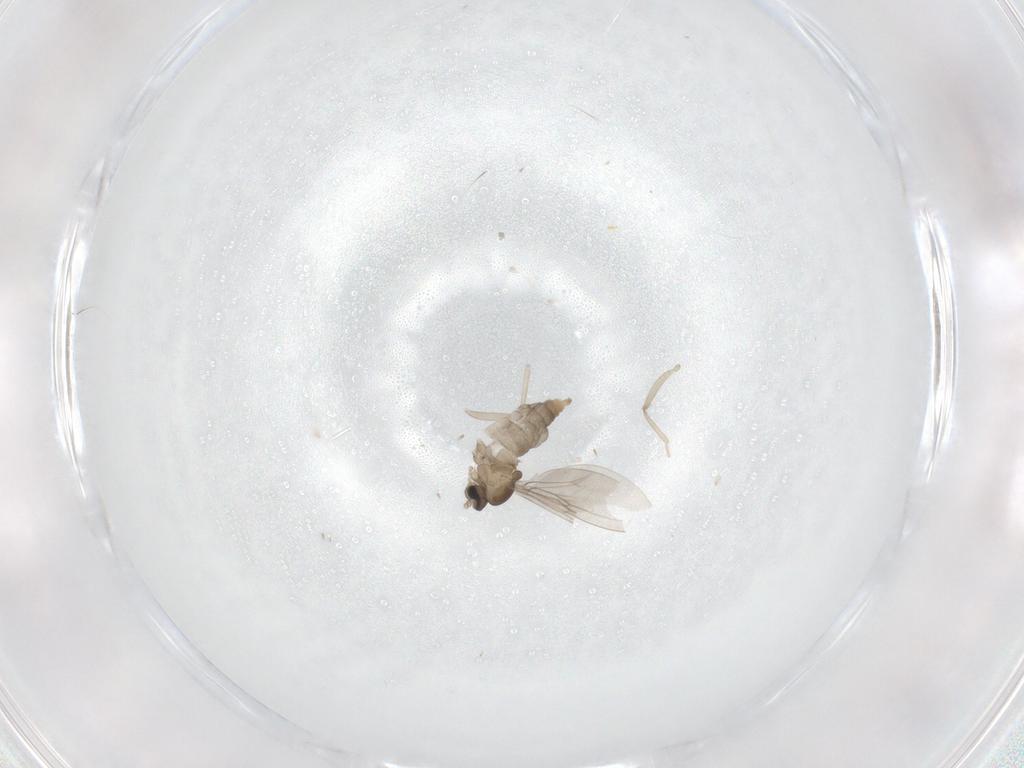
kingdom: Animalia
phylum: Arthropoda
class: Insecta
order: Diptera
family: Cecidomyiidae
